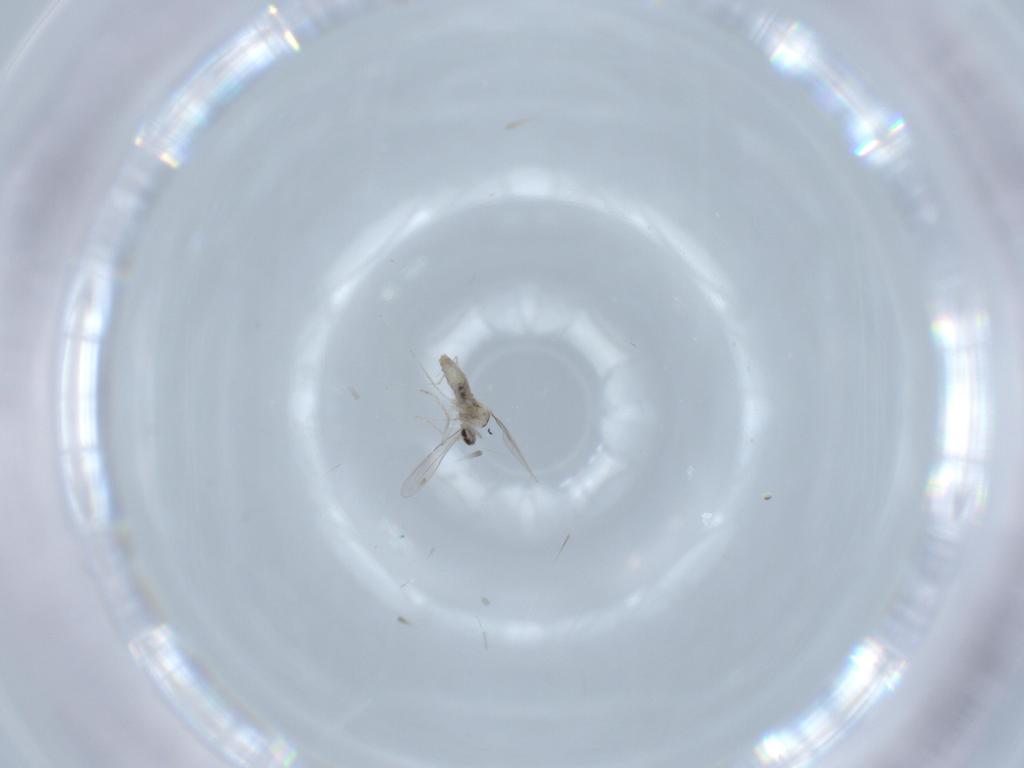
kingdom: Animalia
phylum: Arthropoda
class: Insecta
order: Diptera
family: Cecidomyiidae
